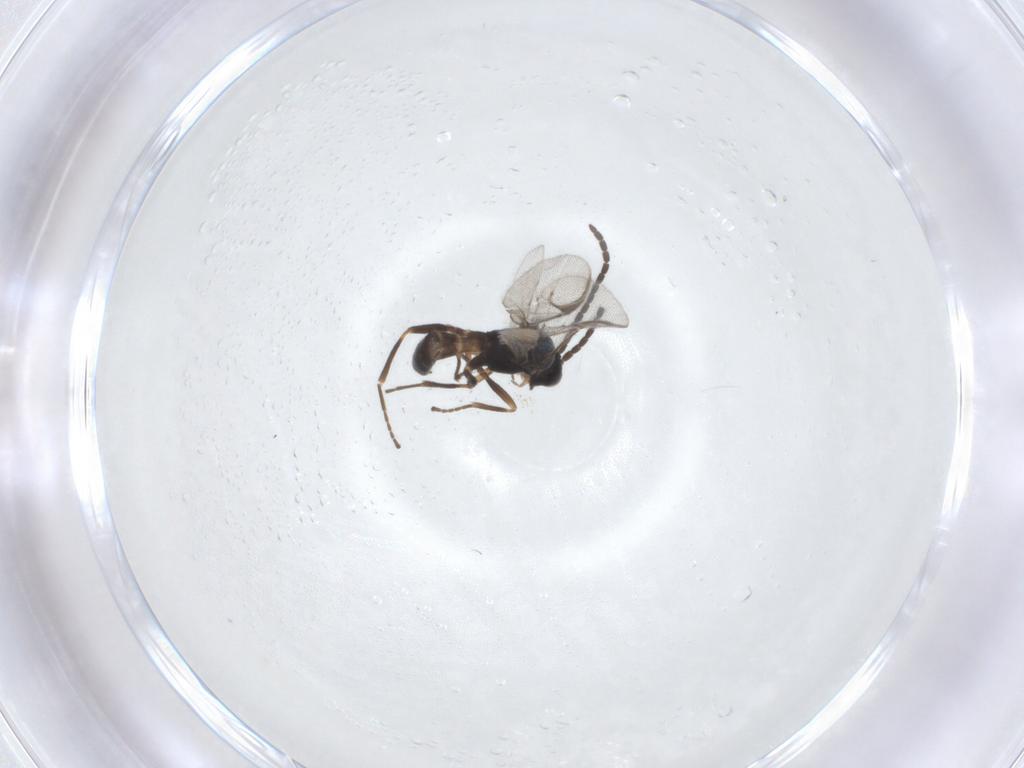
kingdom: Animalia
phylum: Arthropoda
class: Insecta
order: Hymenoptera
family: Braconidae
